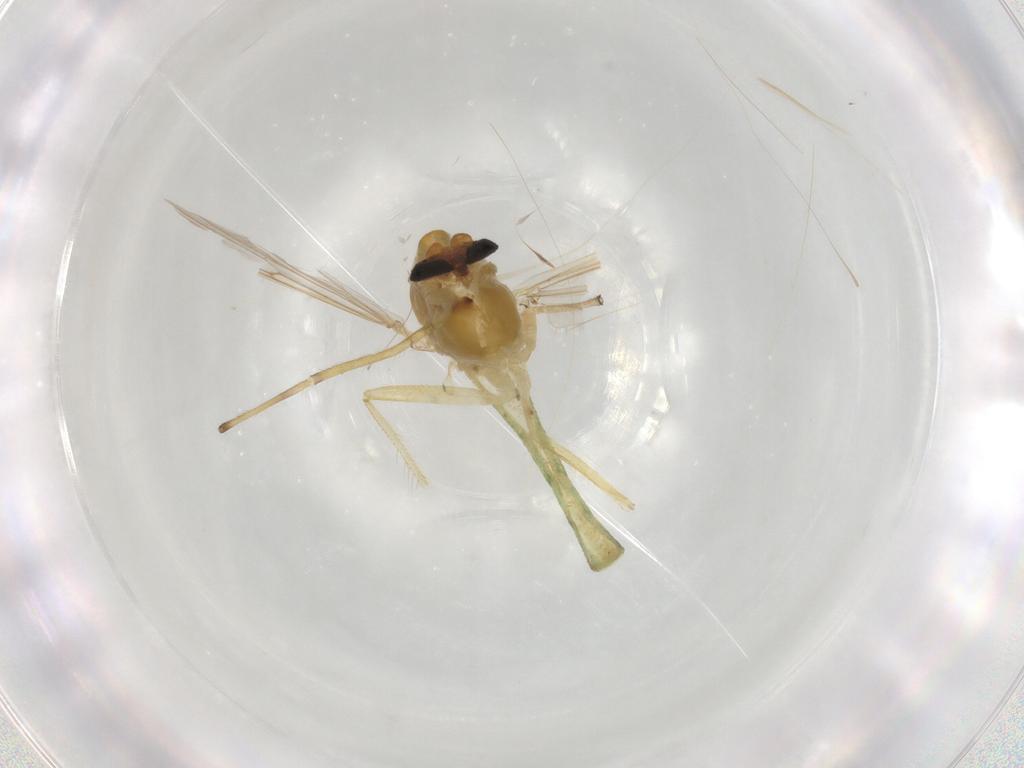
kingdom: Animalia
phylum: Arthropoda
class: Insecta
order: Diptera
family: Chironomidae
